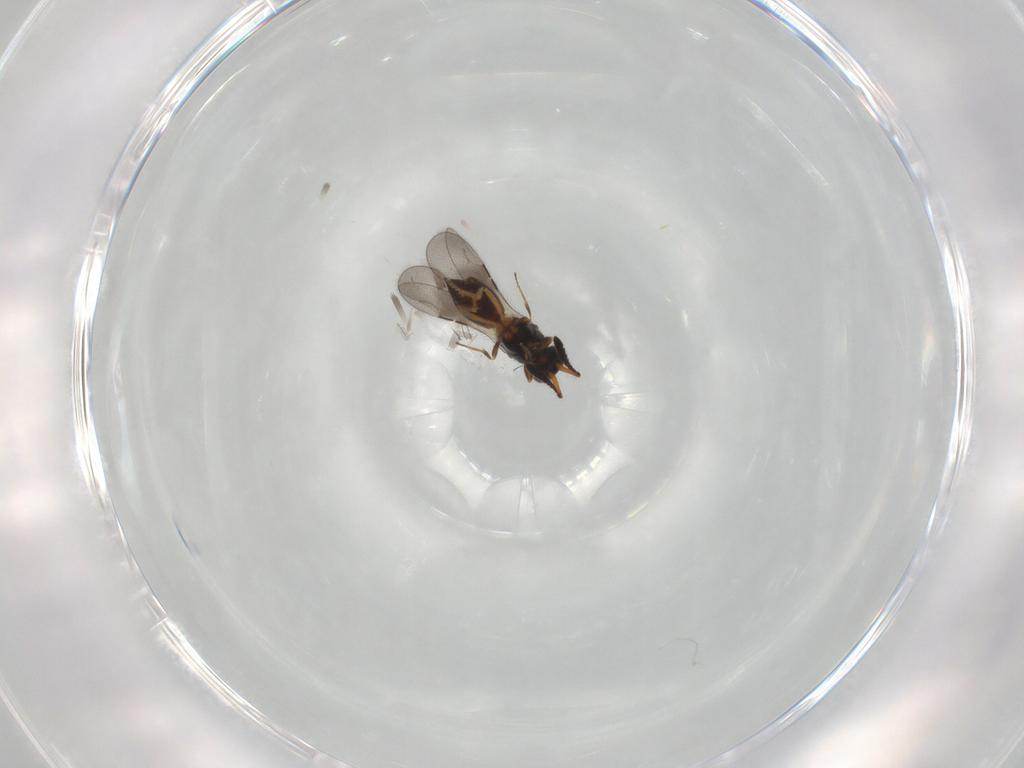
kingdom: Animalia
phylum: Arthropoda
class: Insecta
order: Hymenoptera
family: Ceraphronidae
